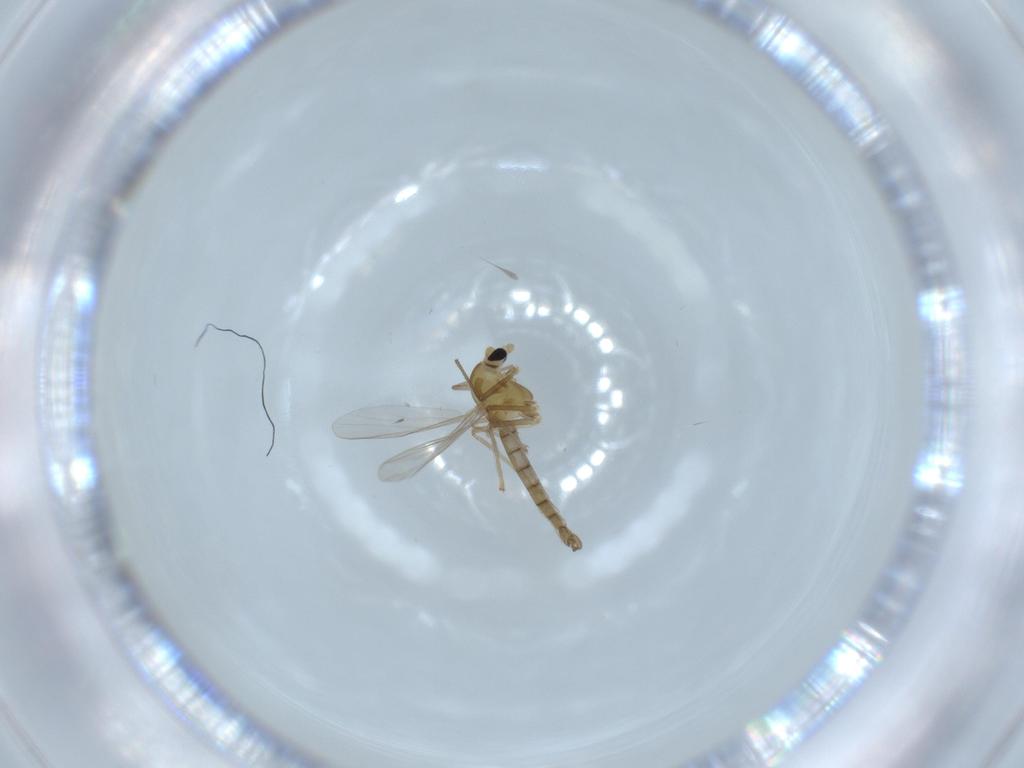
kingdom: Animalia
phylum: Arthropoda
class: Insecta
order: Diptera
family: Chironomidae
